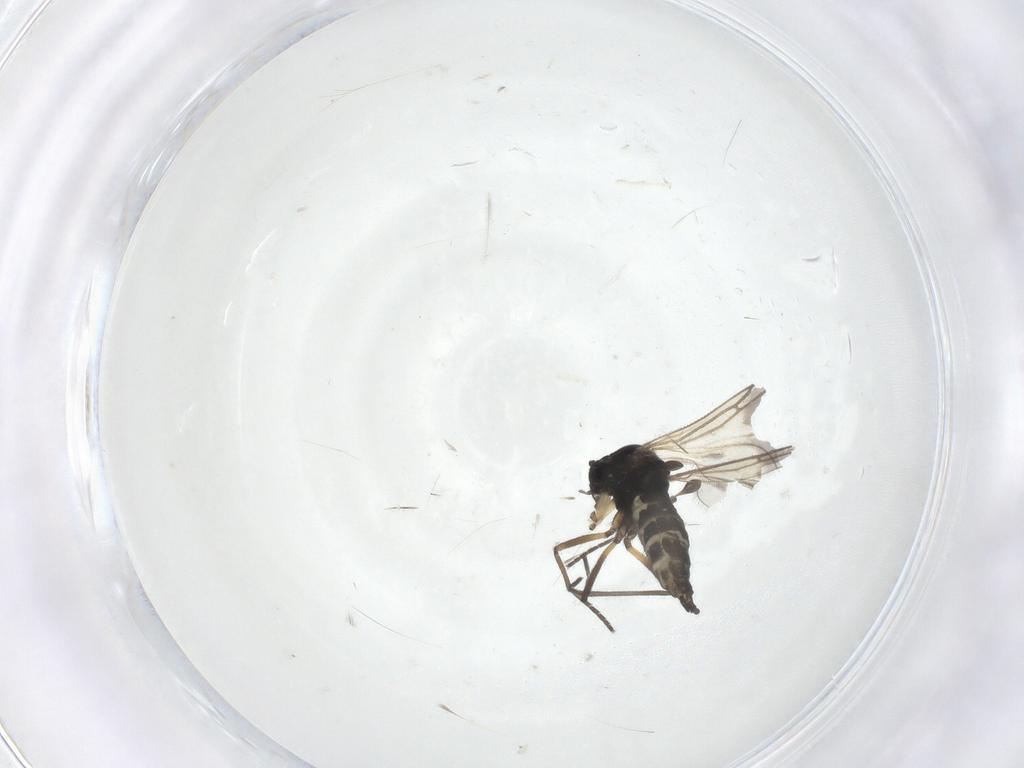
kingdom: Animalia
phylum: Arthropoda
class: Insecta
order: Diptera
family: Sciaridae
